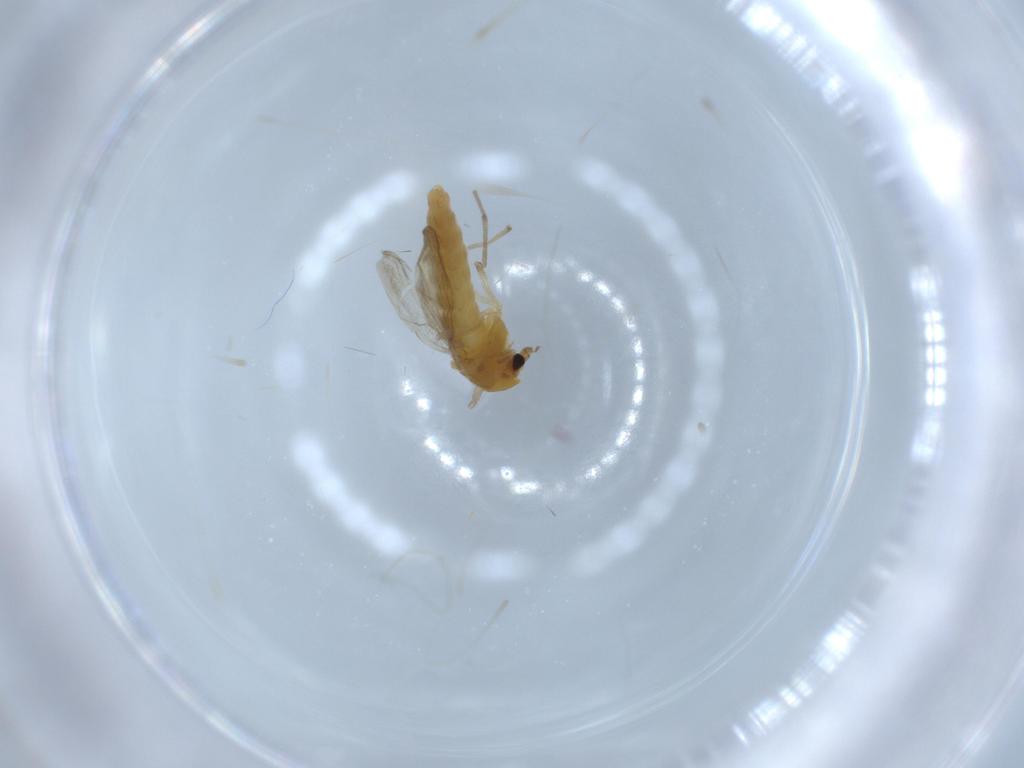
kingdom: Animalia
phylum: Arthropoda
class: Insecta
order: Diptera
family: Chironomidae
